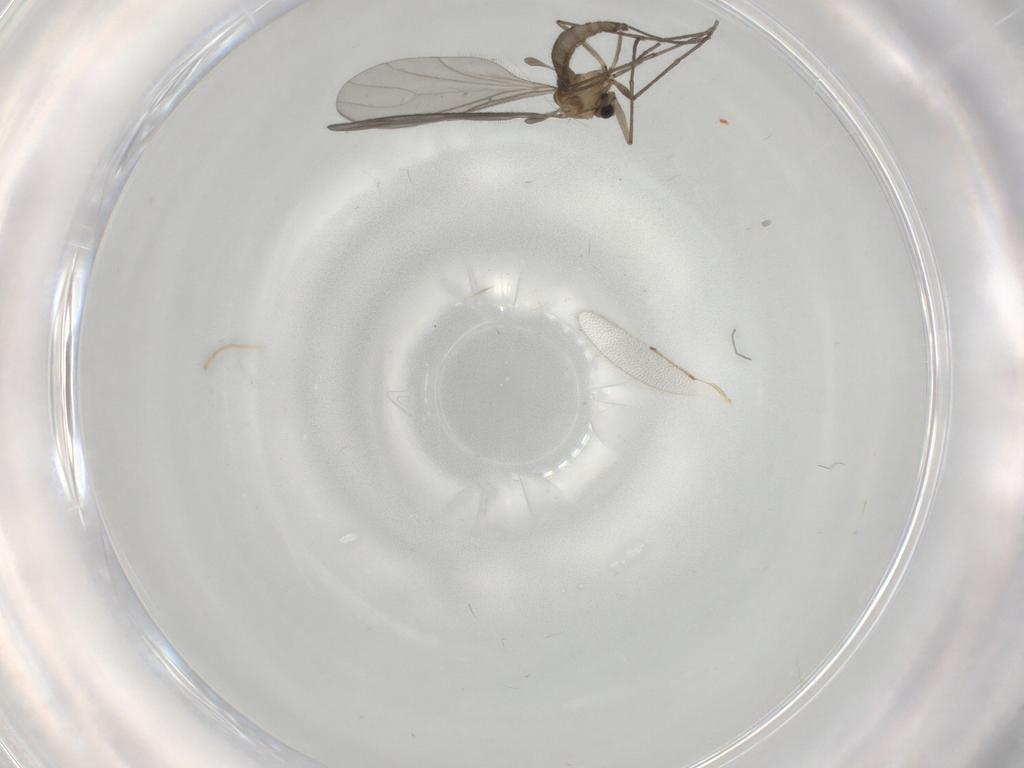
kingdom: Animalia
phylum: Arthropoda
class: Insecta
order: Diptera
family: Sciaridae
